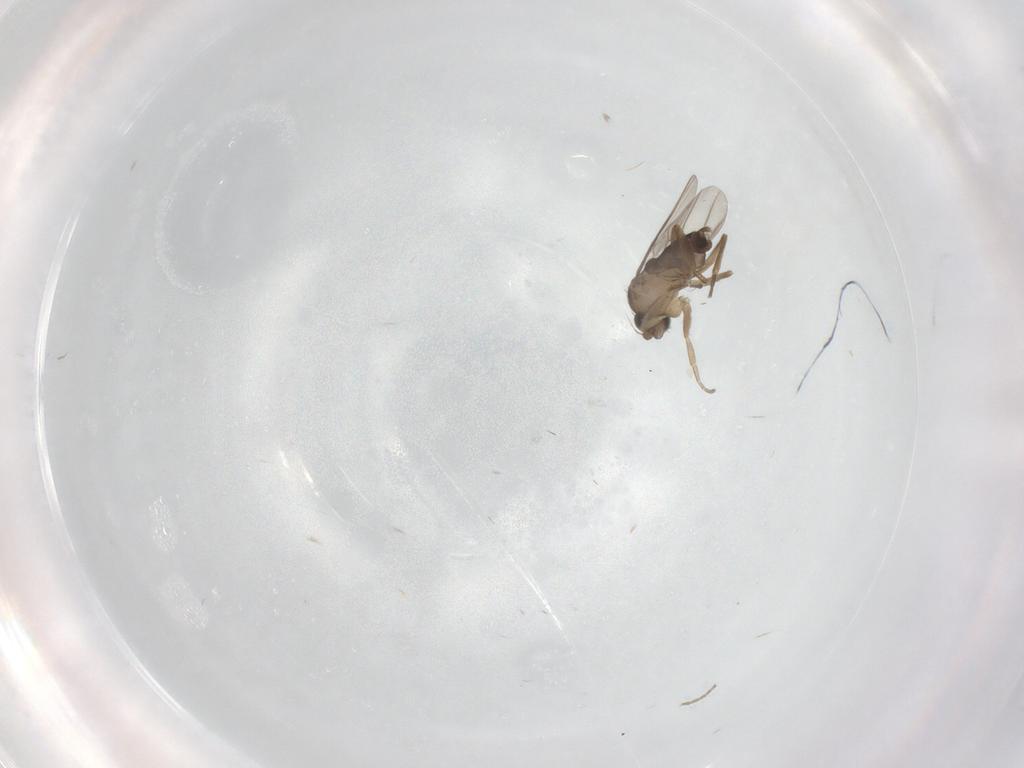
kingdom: Animalia
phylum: Arthropoda
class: Insecta
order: Diptera
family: Phoridae
